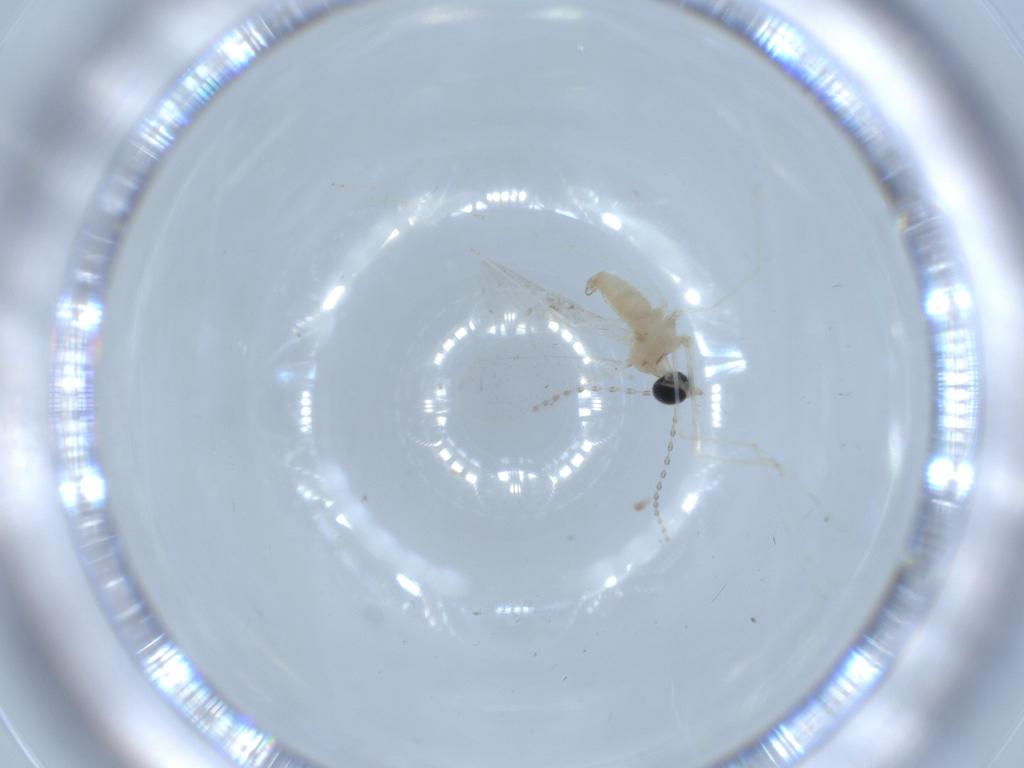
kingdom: Animalia
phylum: Arthropoda
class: Insecta
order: Diptera
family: Cecidomyiidae
